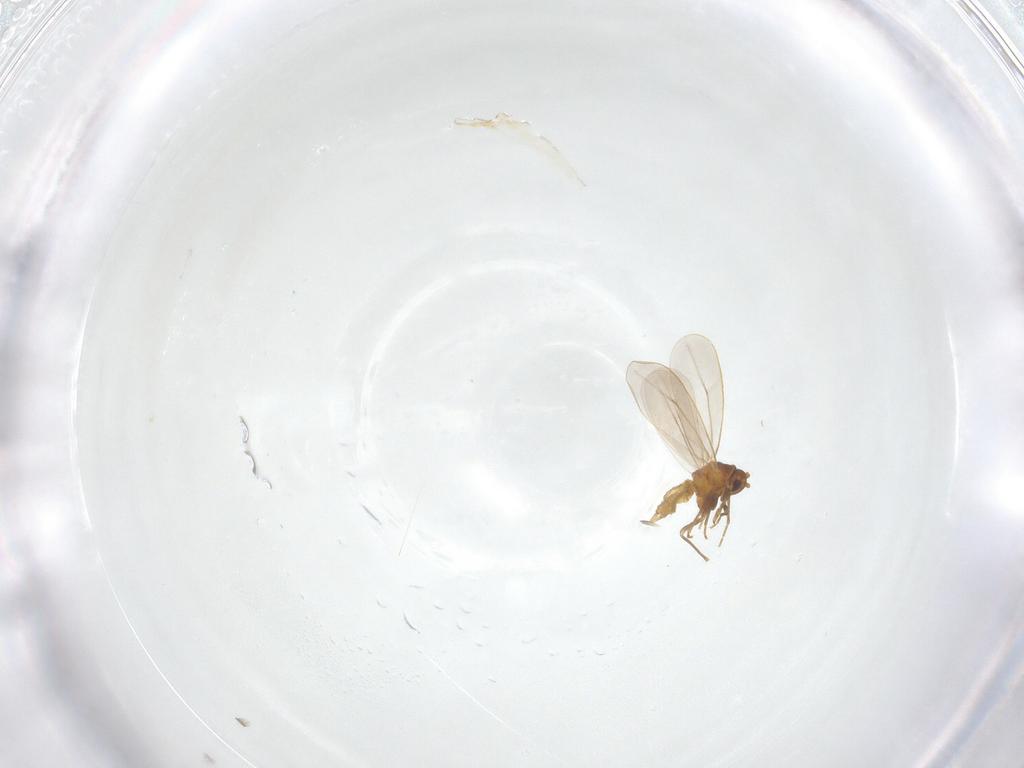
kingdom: Animalia
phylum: Arthropoda
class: Insecta
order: Hemiptera
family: Aleyrodidae
